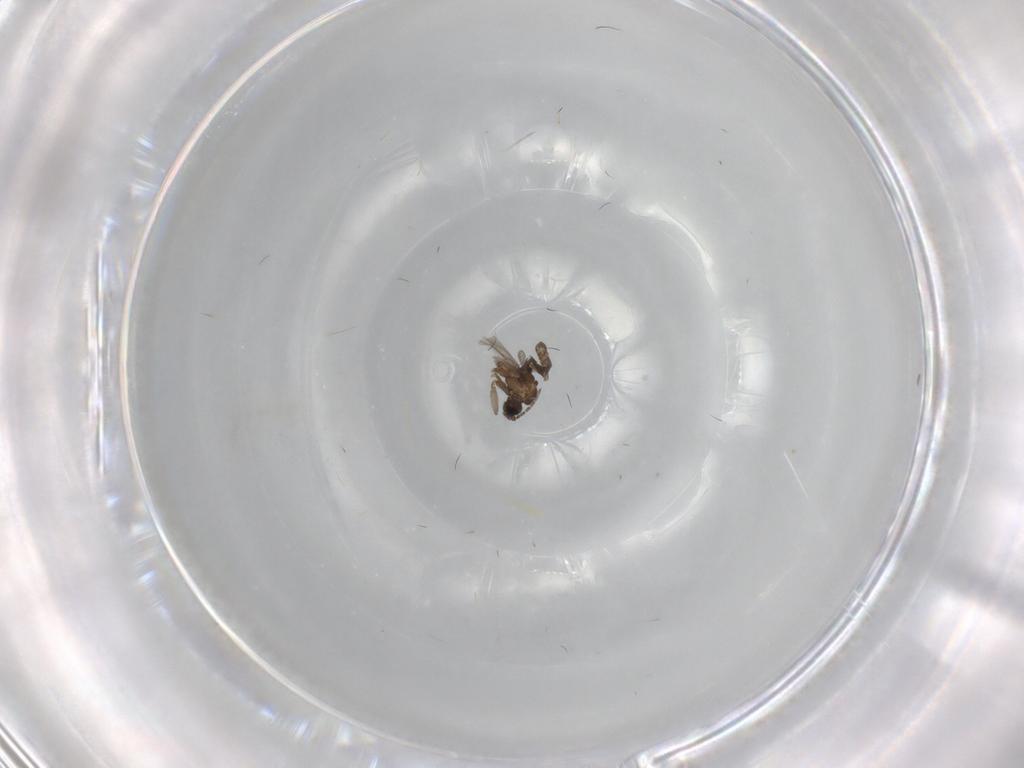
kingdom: Animalia
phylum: Arthropoda
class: Insecta
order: Diptera
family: Sciaridae
